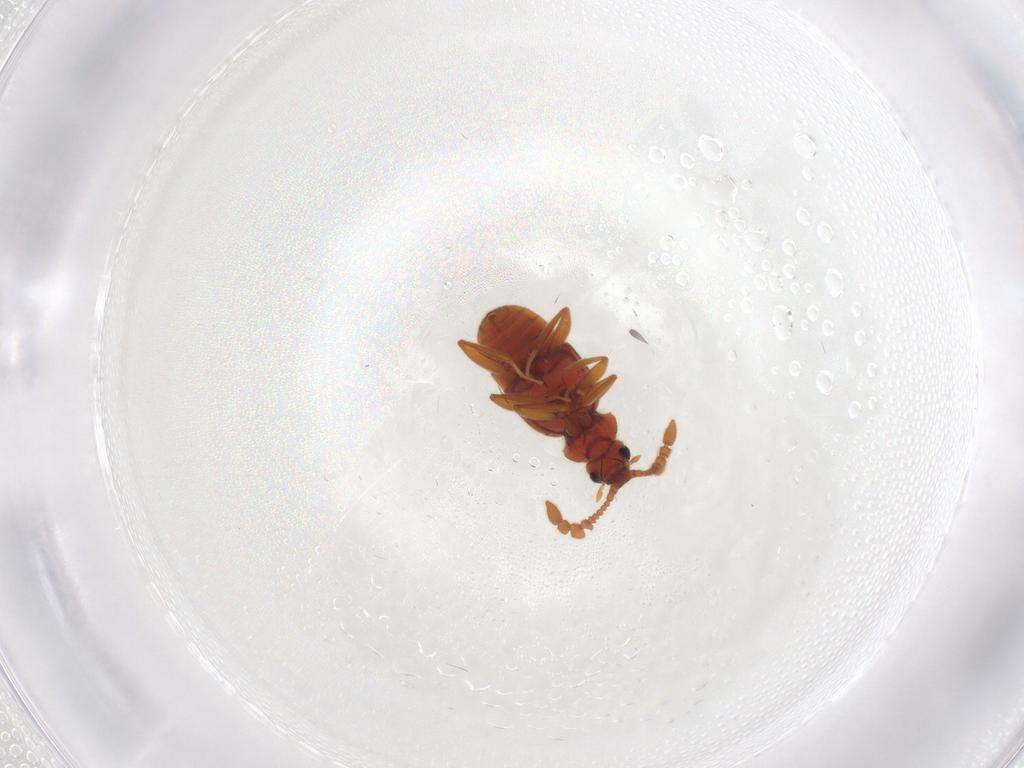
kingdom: Animalia
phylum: Arthropoda
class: Insecta
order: Coleoptera
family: Staphylinidae
